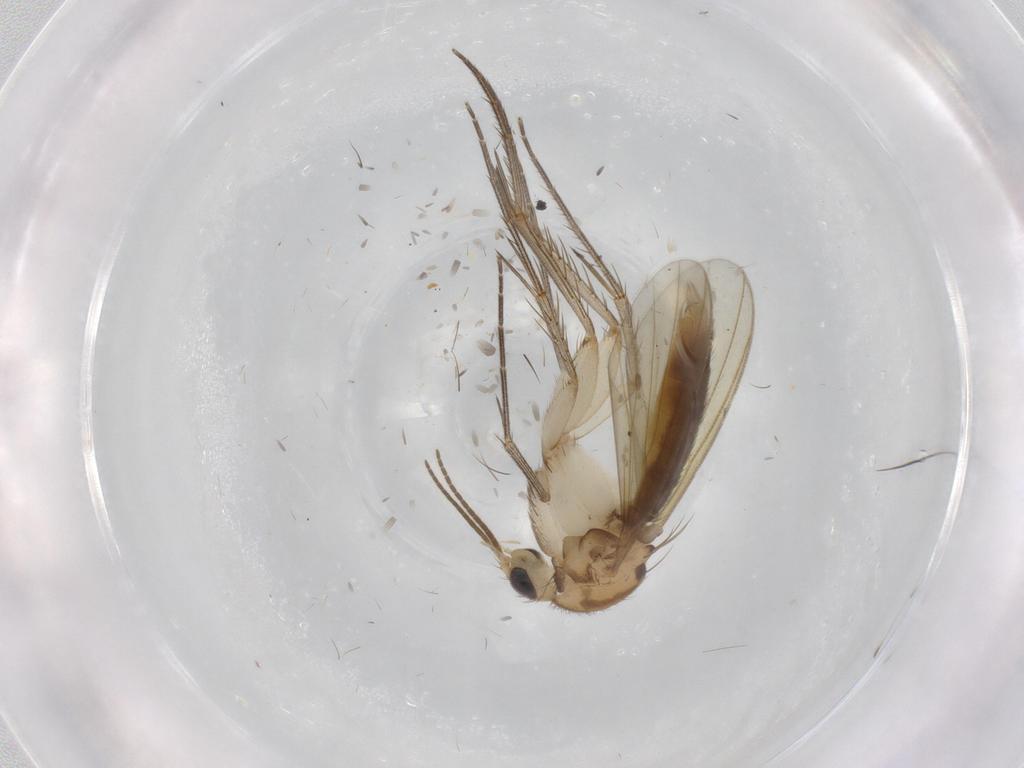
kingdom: Animalia
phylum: Arthropoda
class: Insecta
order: Diptera
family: Mycetophilidae
